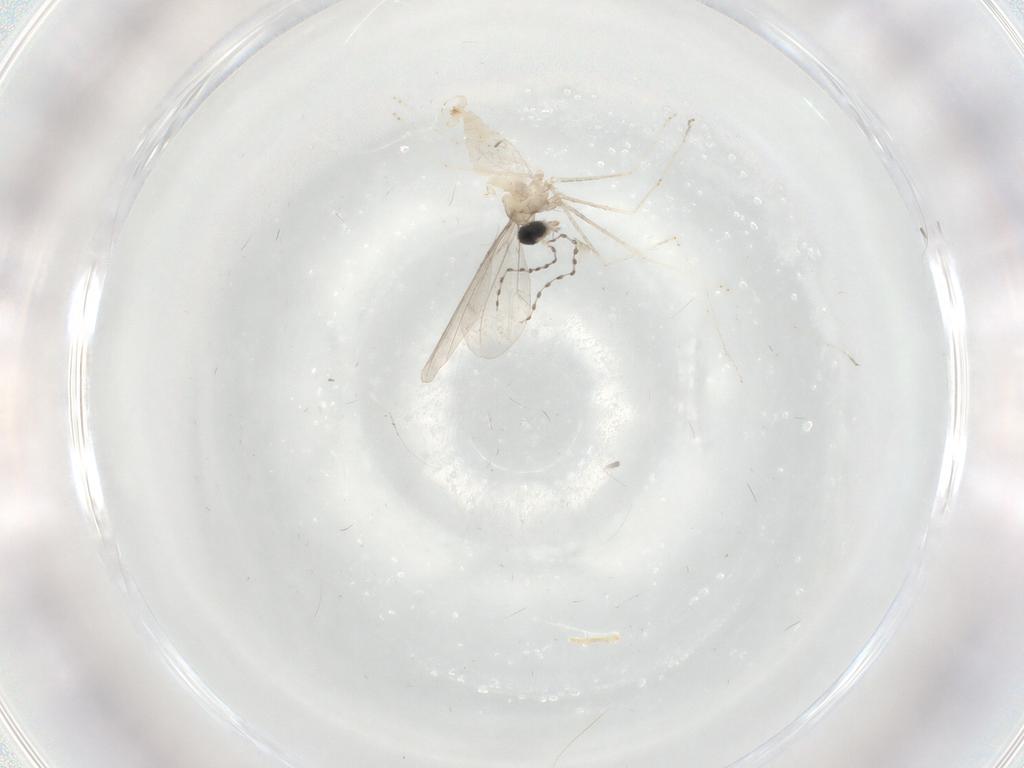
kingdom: Animalia
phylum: Arthropoda
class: Insecta
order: Diptera
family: Cecidomyiidae
